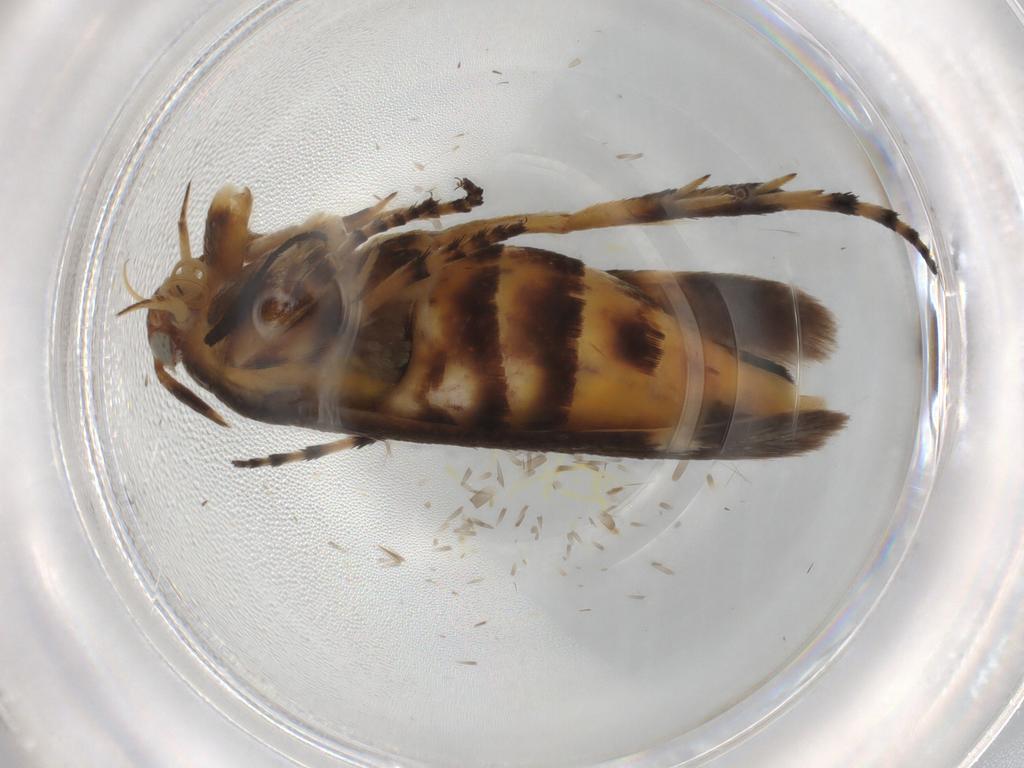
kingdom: Animalia
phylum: Arthropoda
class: Insecta
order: Lepidoptera
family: Scythrididae
